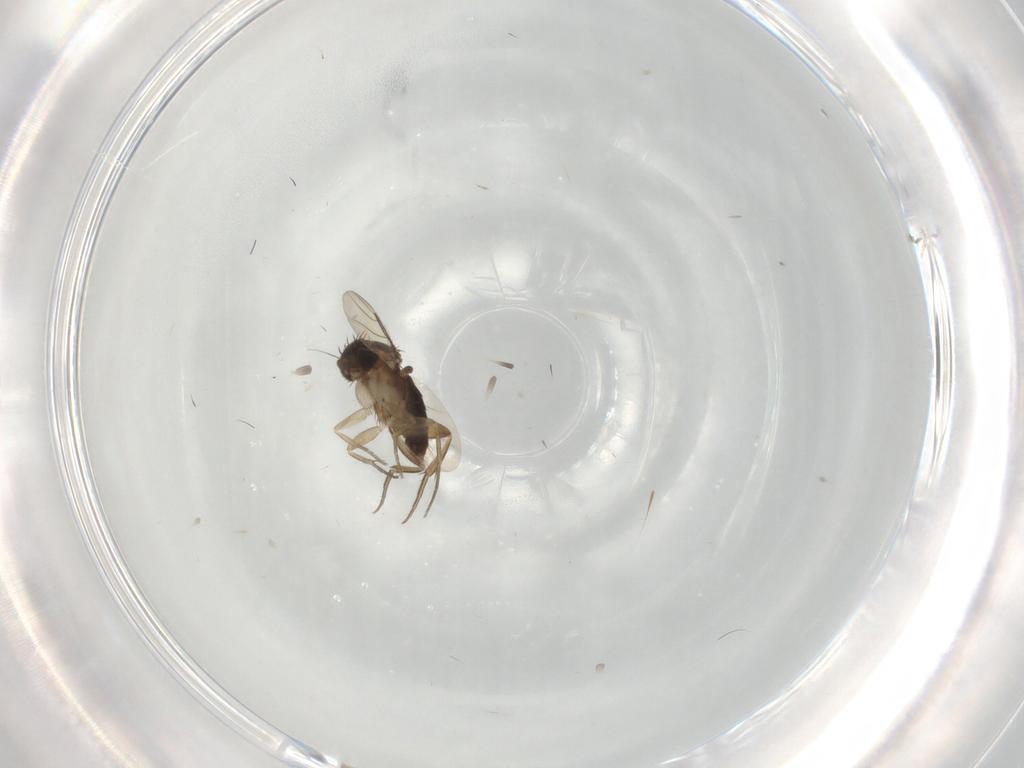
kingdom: Animalia
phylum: Arthropoda
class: Insecta
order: Diptera
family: Phoridae
